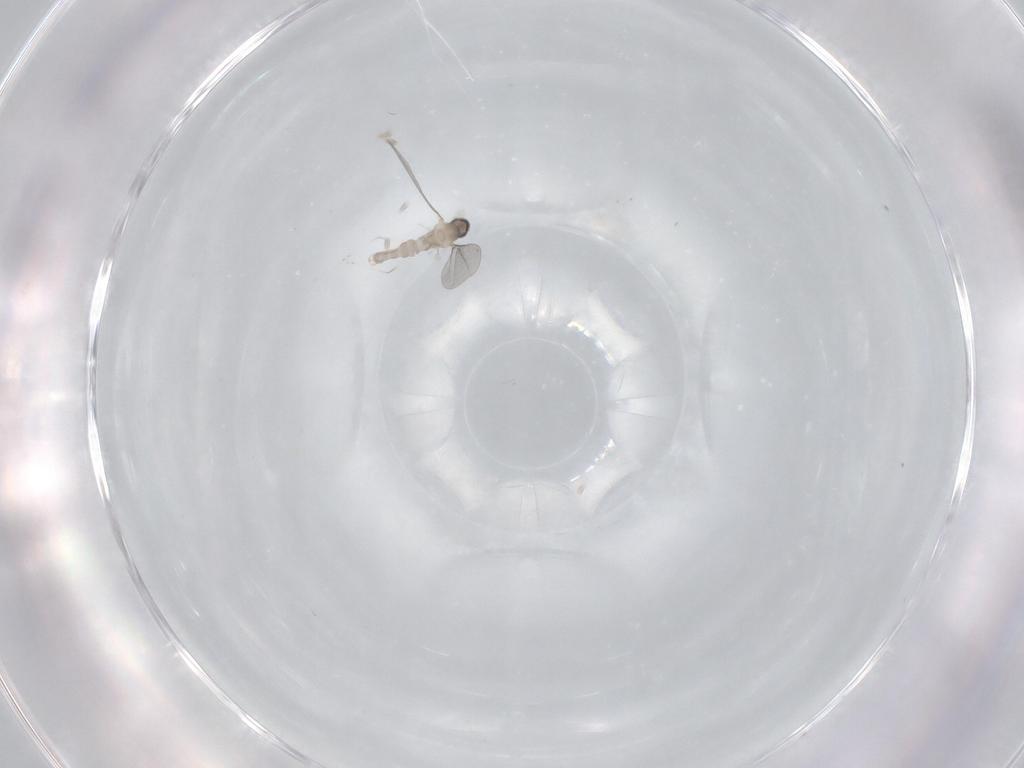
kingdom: Animalia
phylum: Arthropoda
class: Insecta
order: Diptera
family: Cecidomyiidae
